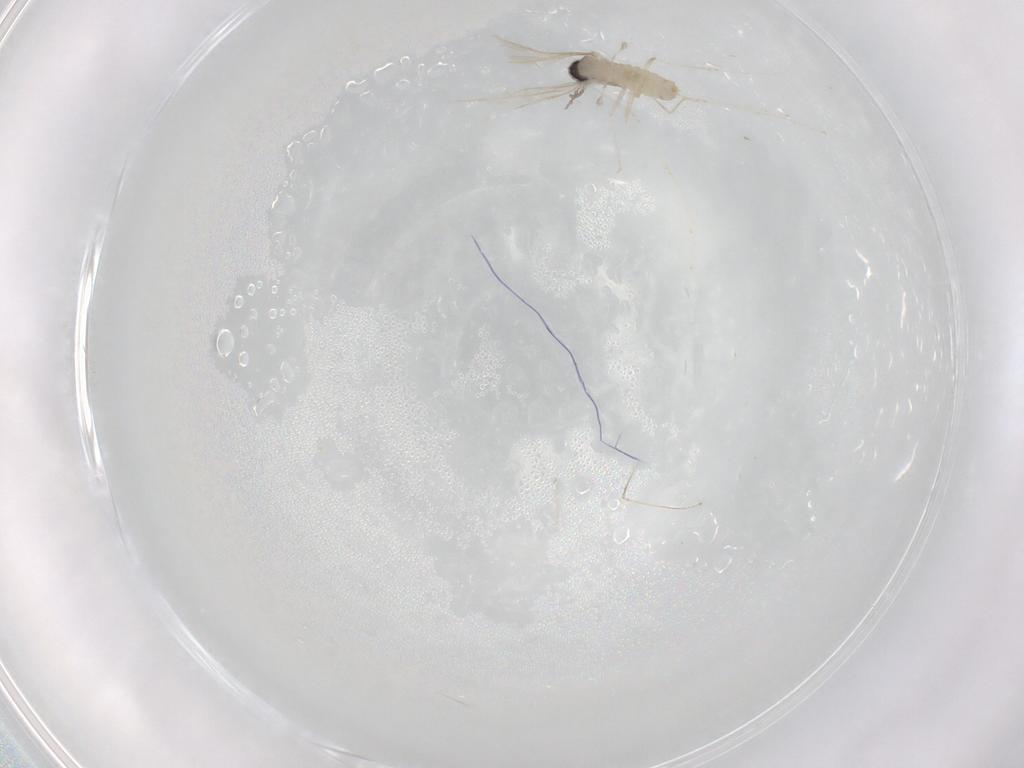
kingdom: Animalia
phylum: Arthropoda
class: Insecta
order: Diptera
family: Cecidomyiidae
